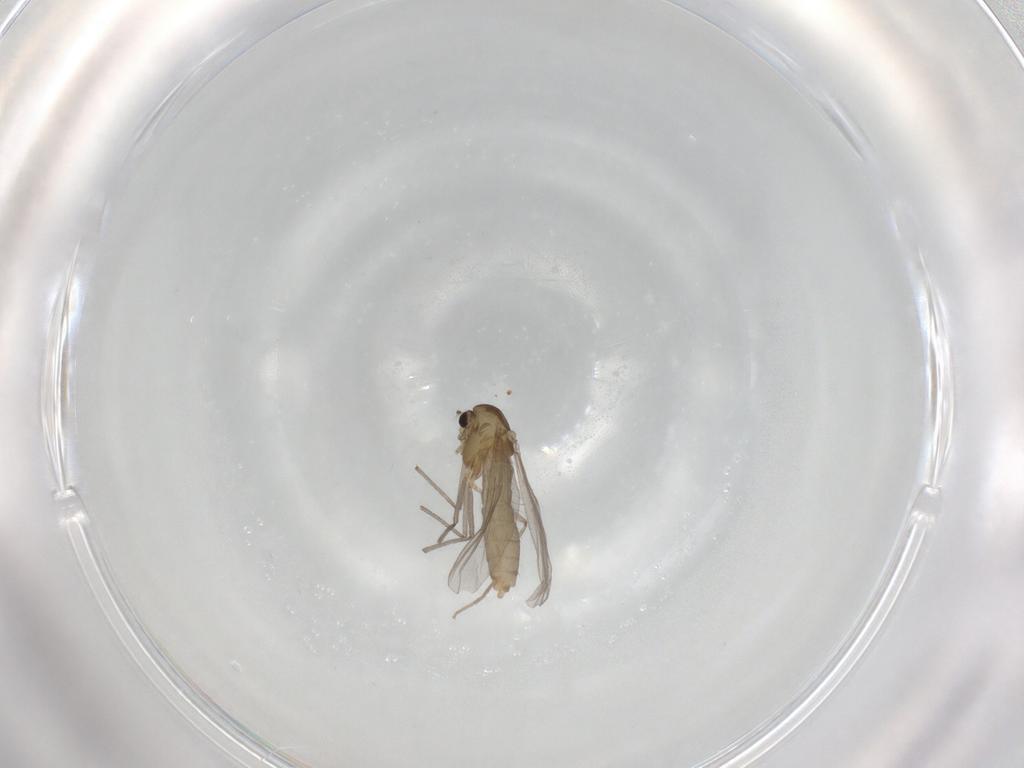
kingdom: Animalia
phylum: Arthropoda
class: Insecta
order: Diptera
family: Chironomidae
